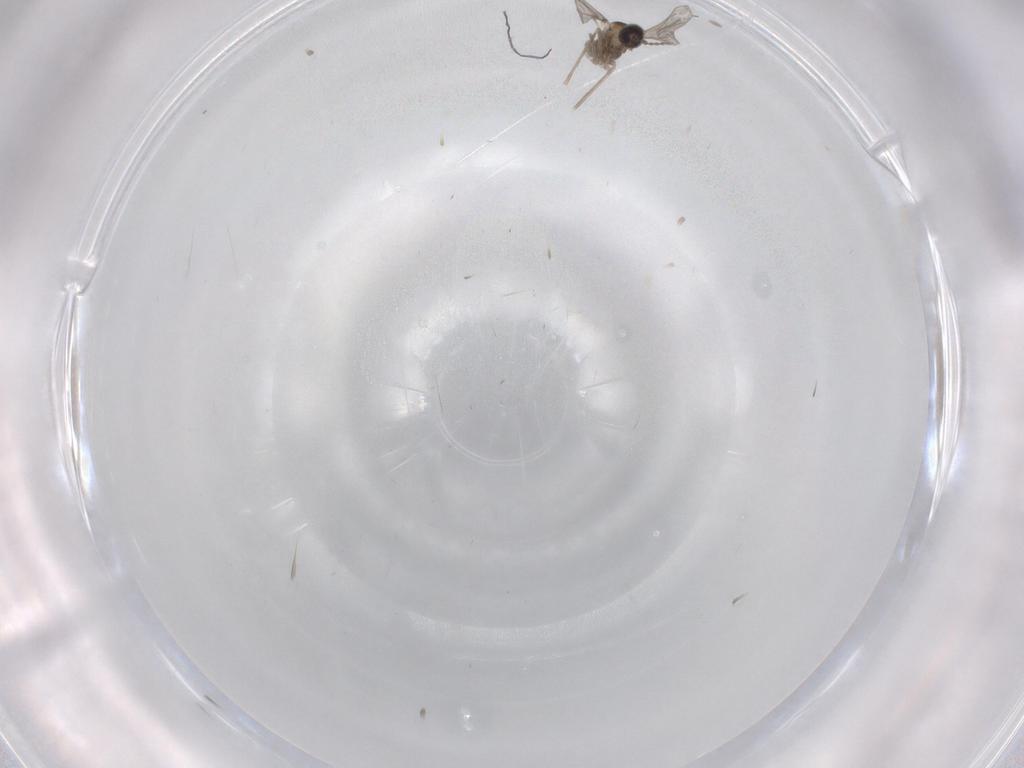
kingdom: Animalia
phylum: Arthropoda
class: Insecta
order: Diptera
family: Cecidomyiidae
